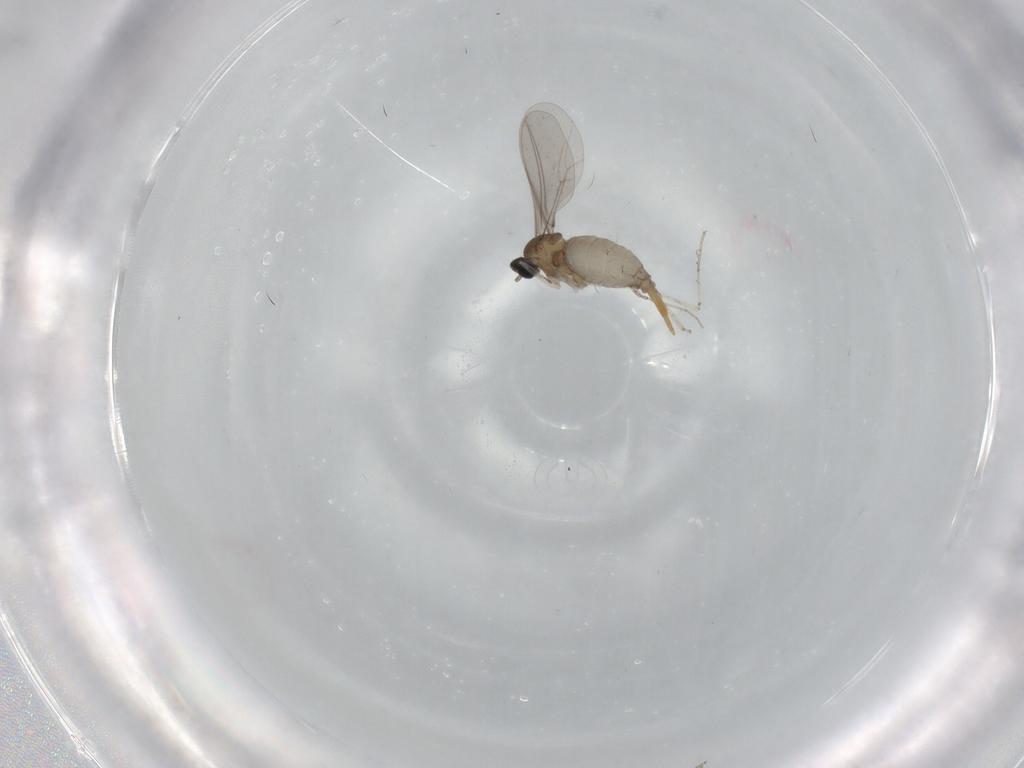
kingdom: Animalia
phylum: Arthropoda
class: Insecta
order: Diptera
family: Cecidomyiidae
